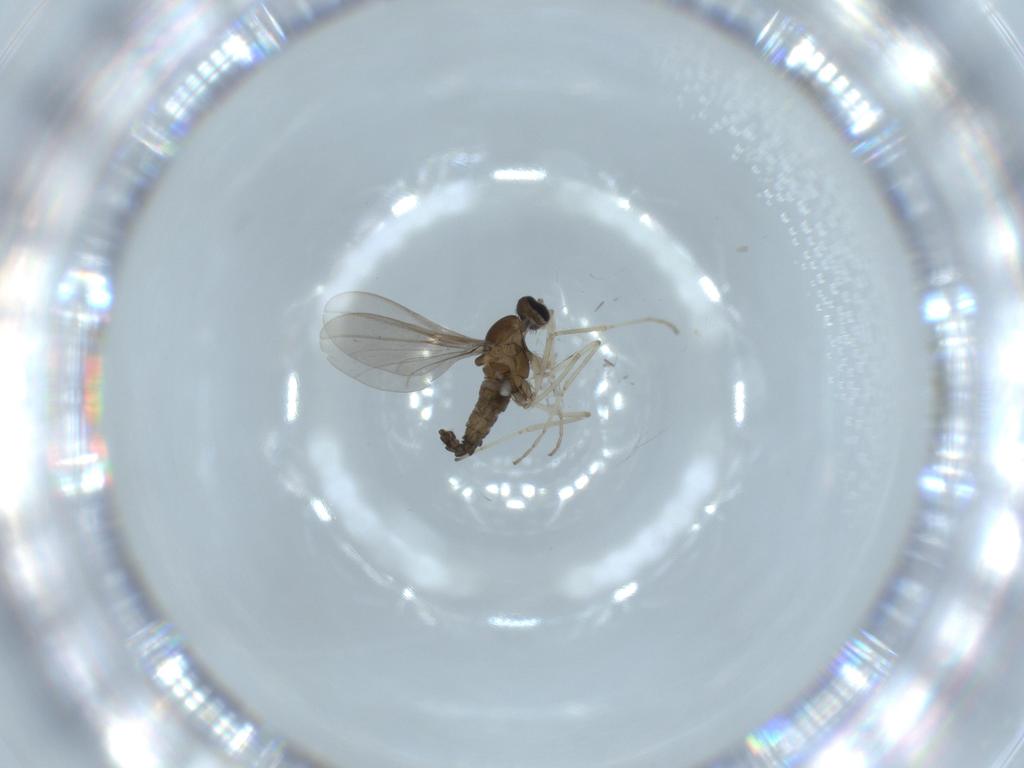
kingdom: Animalia
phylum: Arthropoda
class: Insecta
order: Diptera
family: Cecidomyiidae
